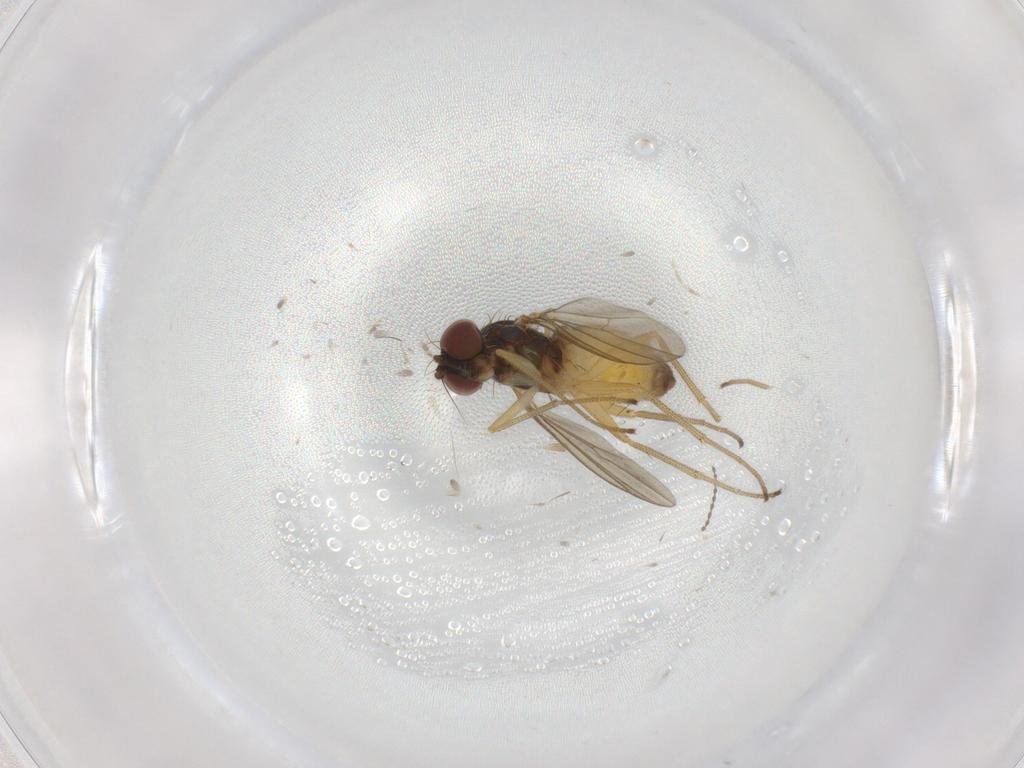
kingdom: Animalia
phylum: Arthropoda
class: Insecta
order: Diptera
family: Dolichopodidae
